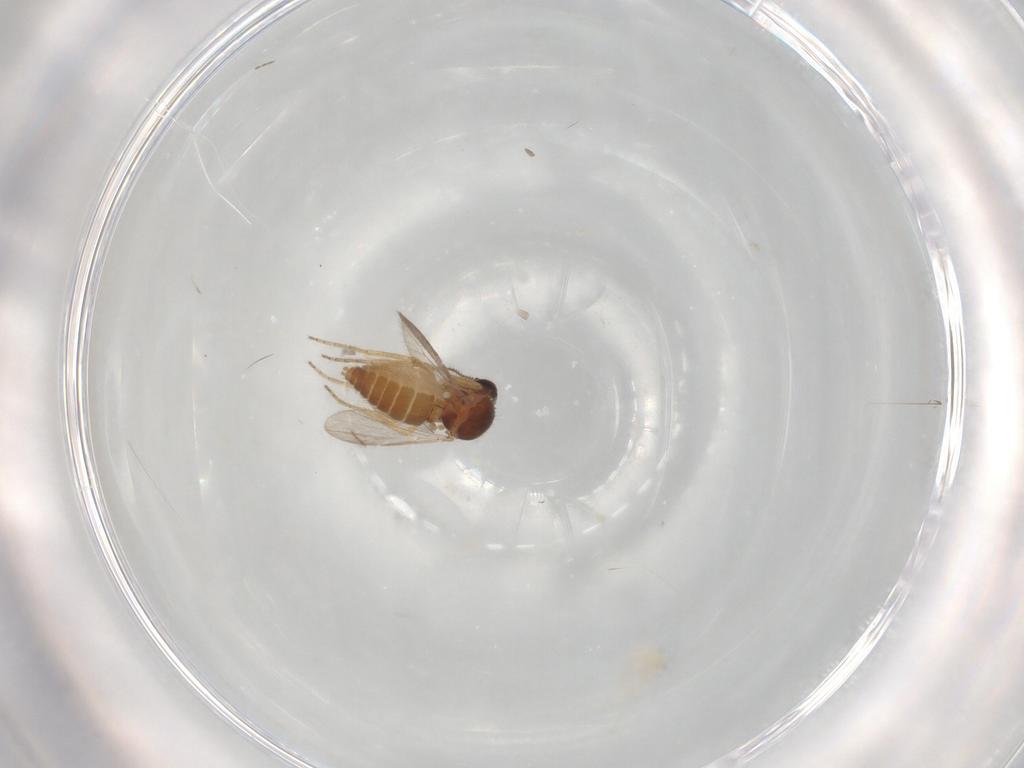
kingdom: Animalia
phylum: Arthropoda
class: Insecta
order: Diptera
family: Ceratopogonidae
